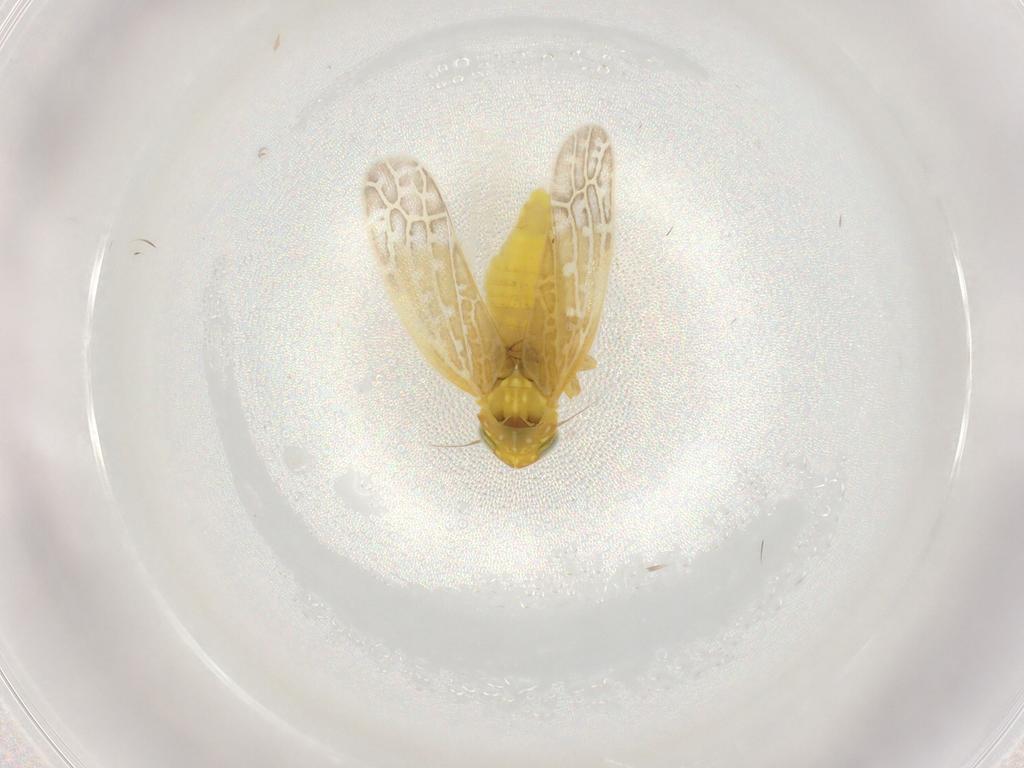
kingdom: Animalia
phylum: Arthropoda
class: Insecta
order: Hemiptera
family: Cicadellidae
